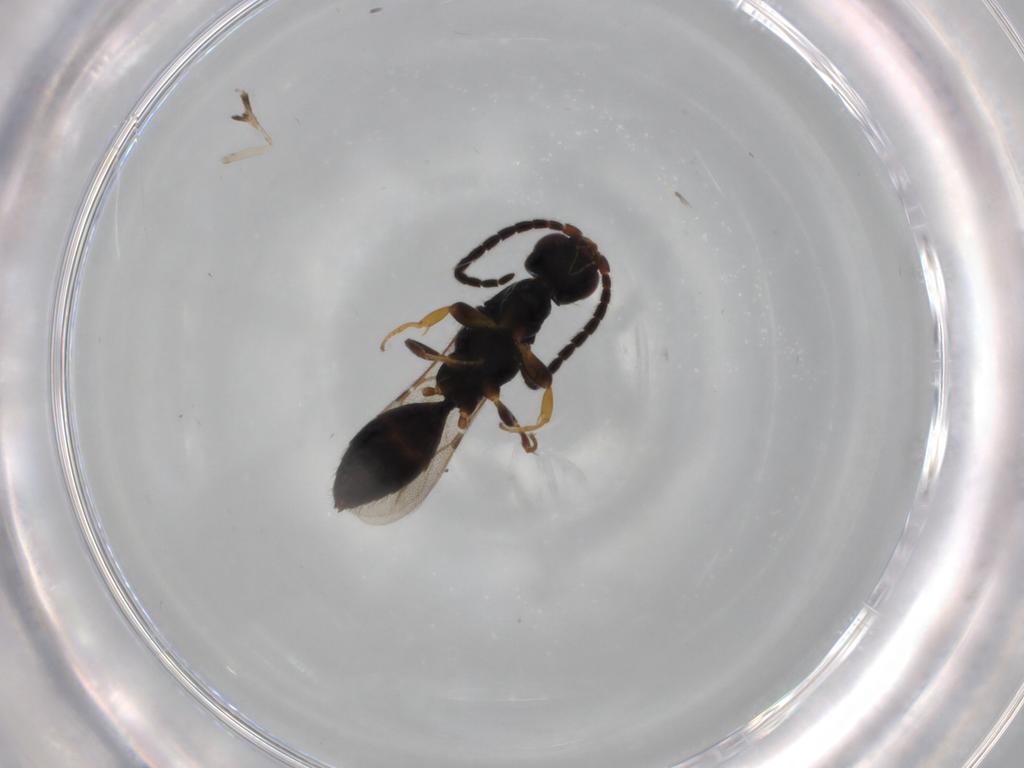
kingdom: Animalia
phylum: Arthropoda
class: Insecta
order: Hymenoptera
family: Bethylidae
